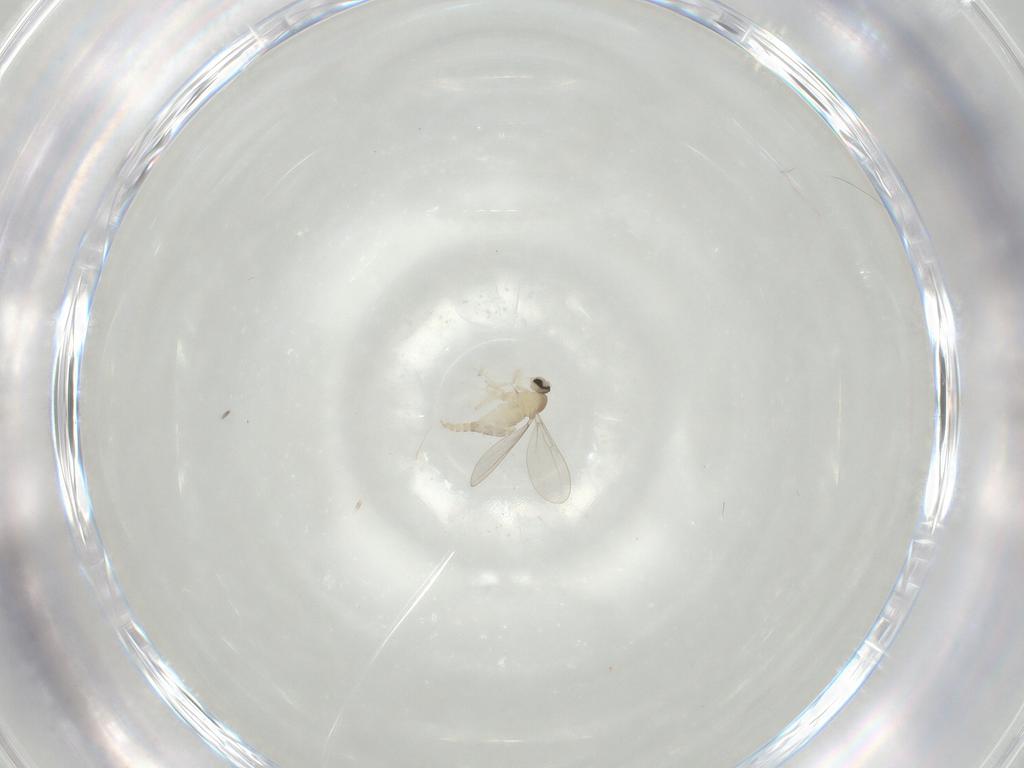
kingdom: Animalia
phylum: Arthropoda
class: Insecta
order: Diptera
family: Cecidomyiidae
